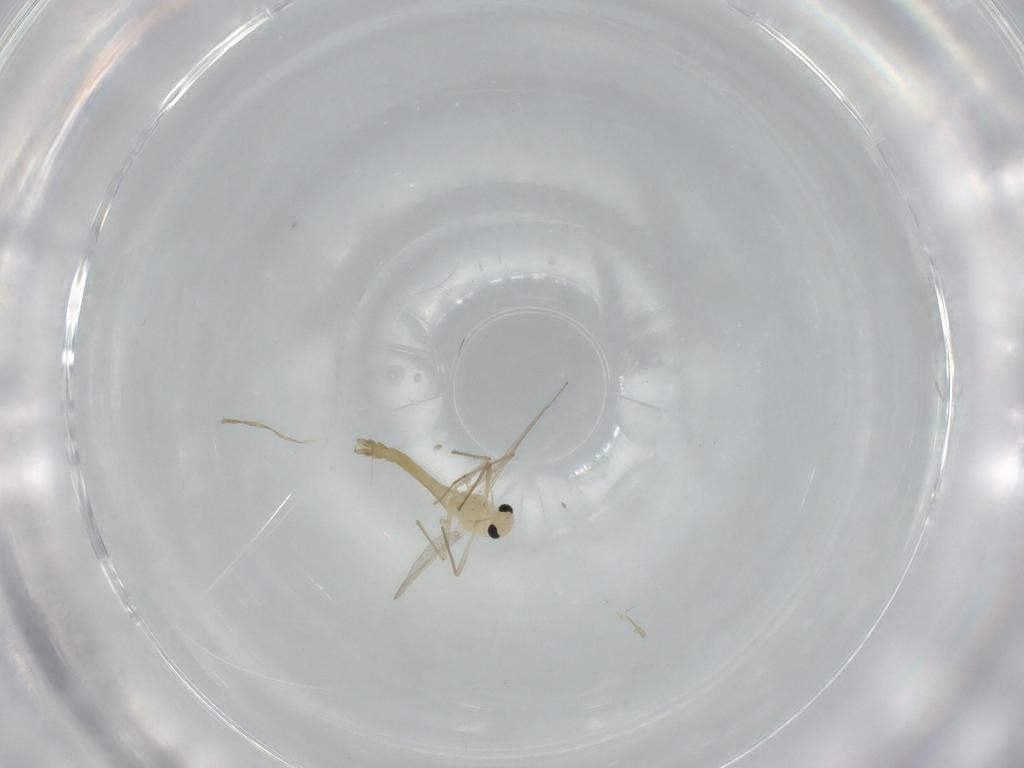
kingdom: Animalia
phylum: Arthropoda
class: Insecta
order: Diptera
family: Chironomidae
